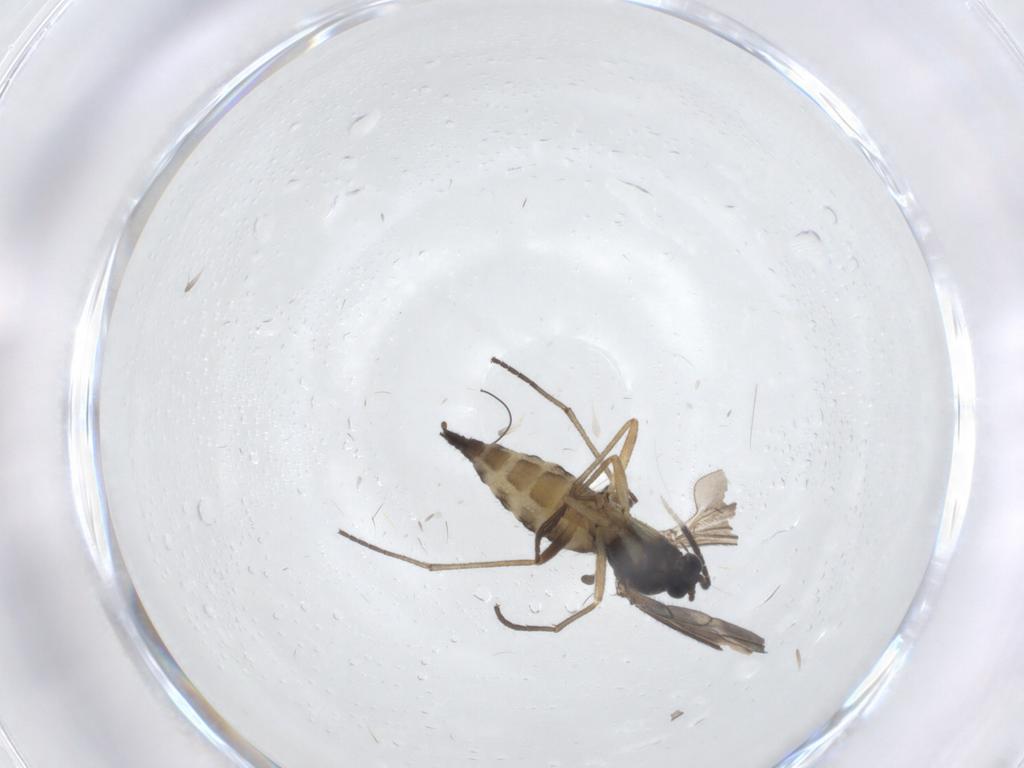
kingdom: Animalia
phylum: Arthropoda
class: Insecta
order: Diptera
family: Sciaridae
